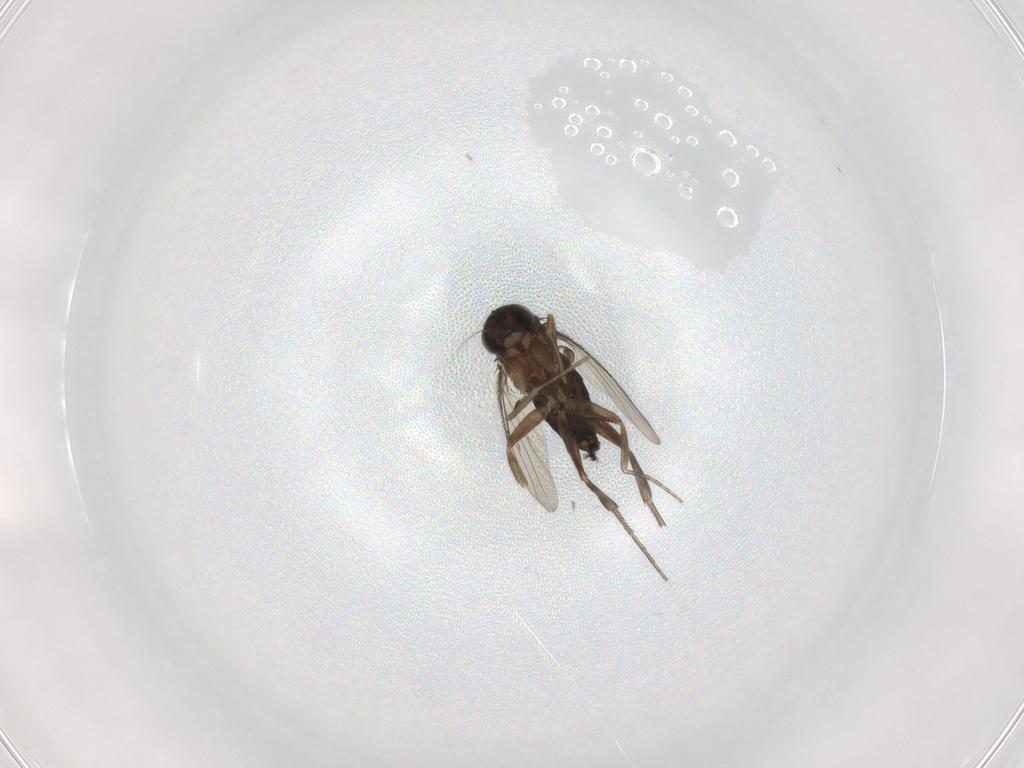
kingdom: Animalia
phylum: Arthropoda
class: Insecta
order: Diptera
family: Phoridae
